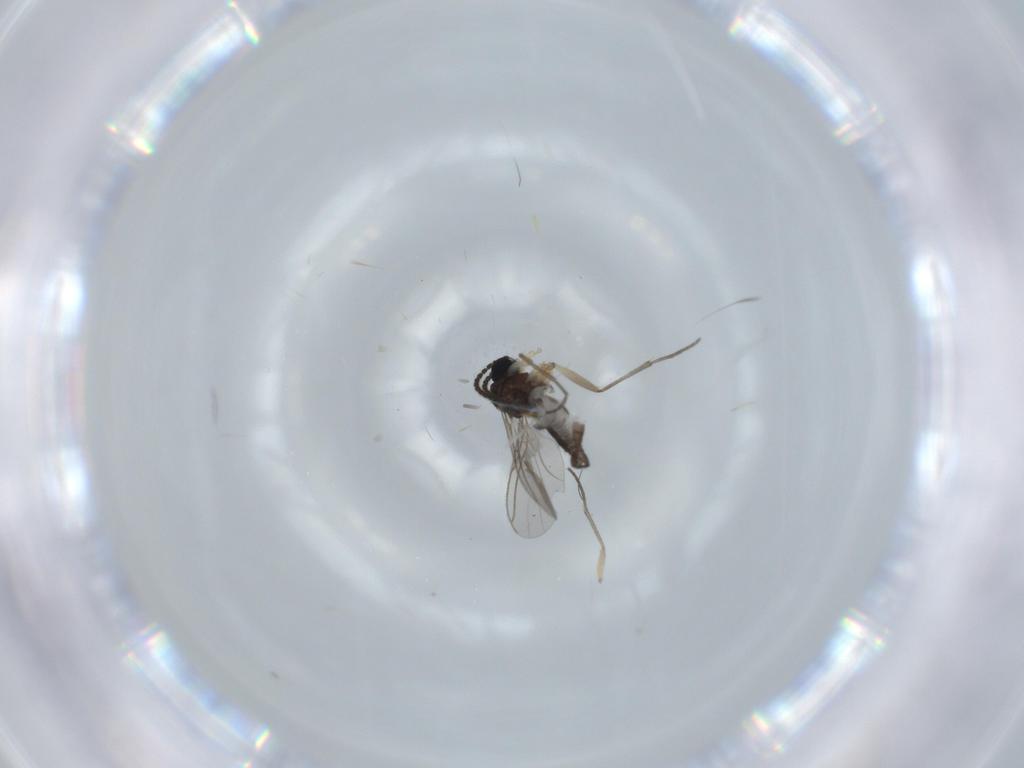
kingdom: Animalia
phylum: Arthropoda
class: Insecta
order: Diptera
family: Sciaridae
